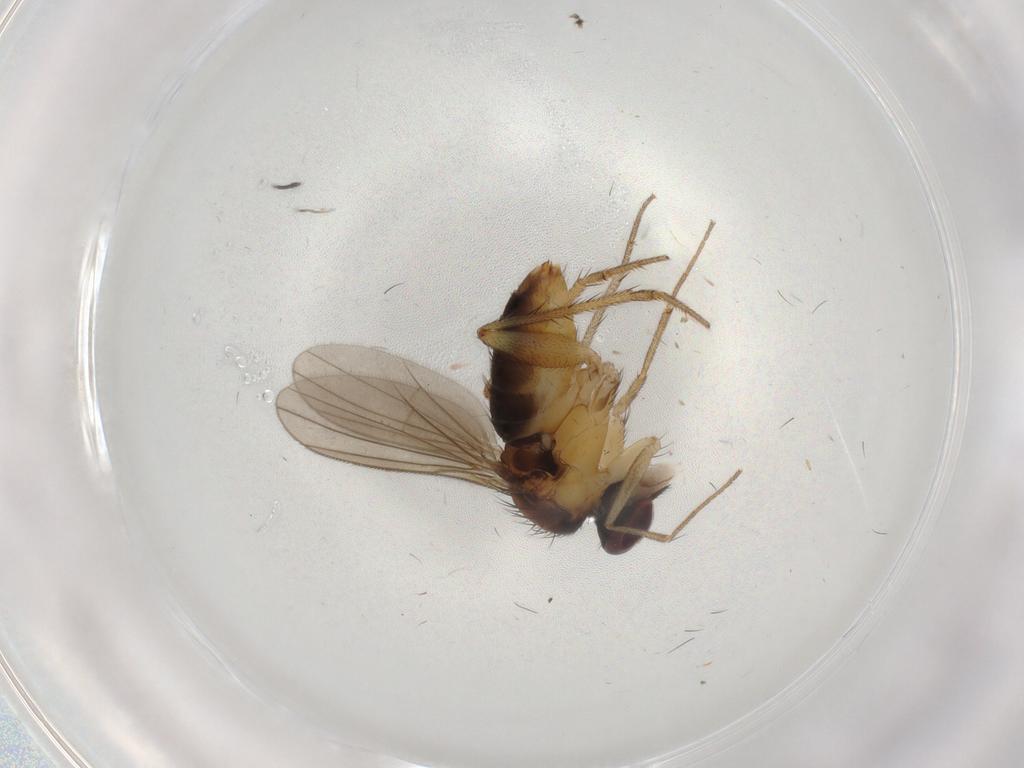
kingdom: Animalia
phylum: Arthropoda
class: Insecta
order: Diptera
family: Dolichopodidae
